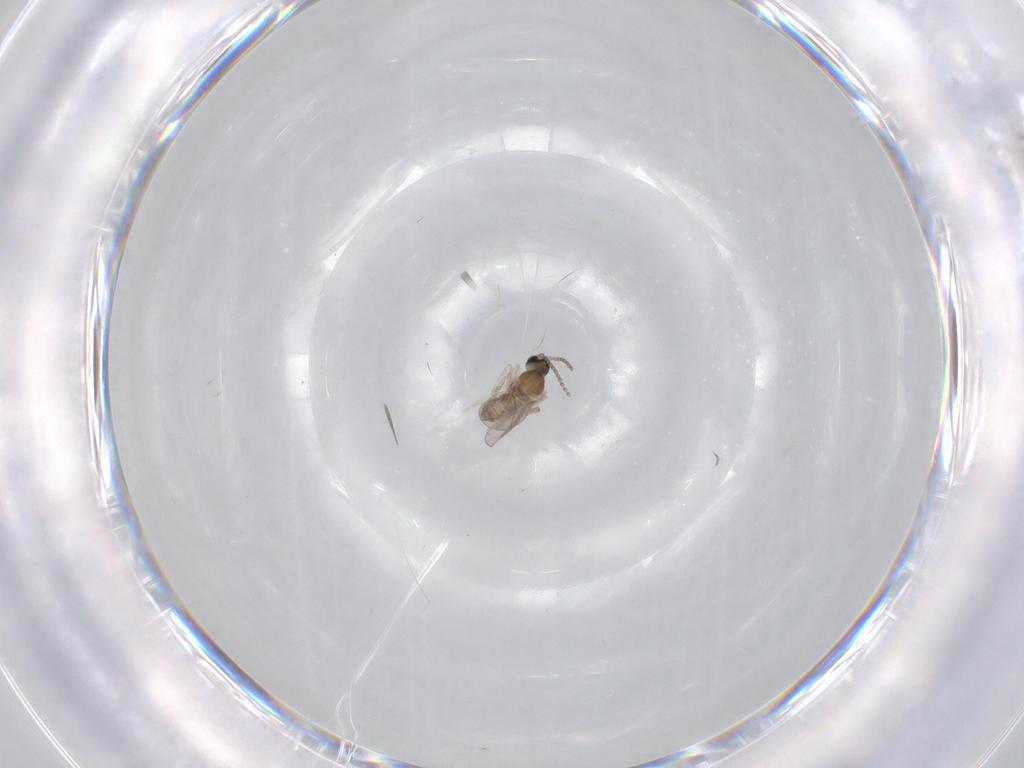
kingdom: Animalia
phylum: Arthropoda
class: Insecta
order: Diptera
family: Cecidomyiidae
